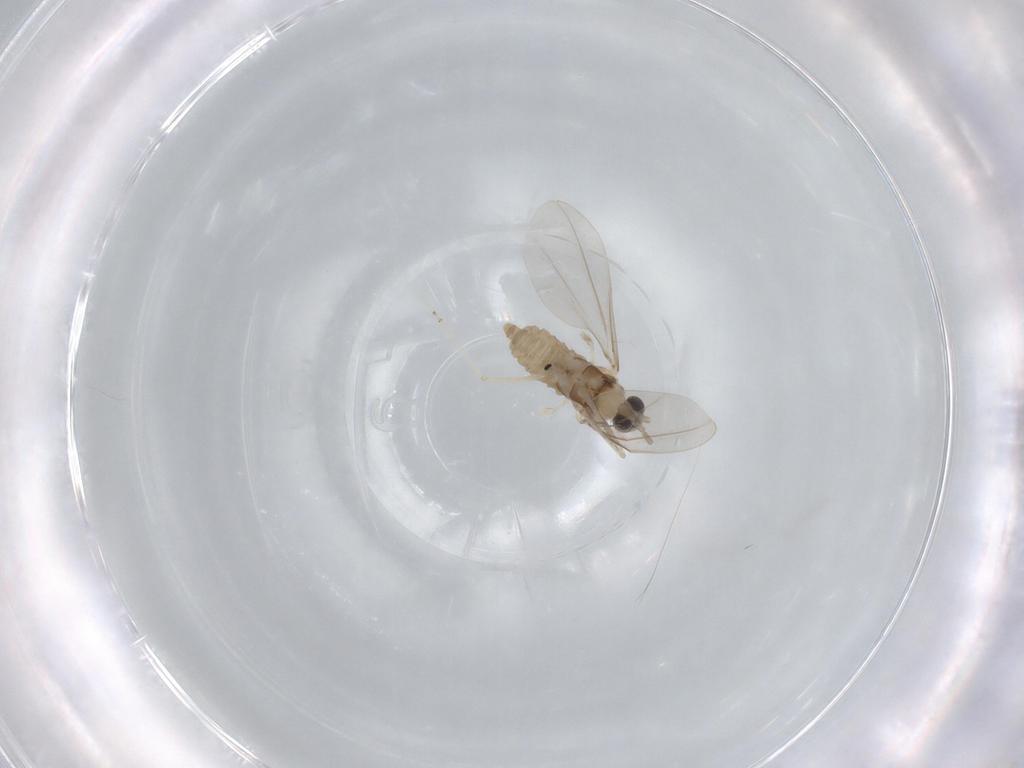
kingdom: Animalia
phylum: Arthropoda
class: Insecta
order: Diptera
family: Cecidomyiidae
